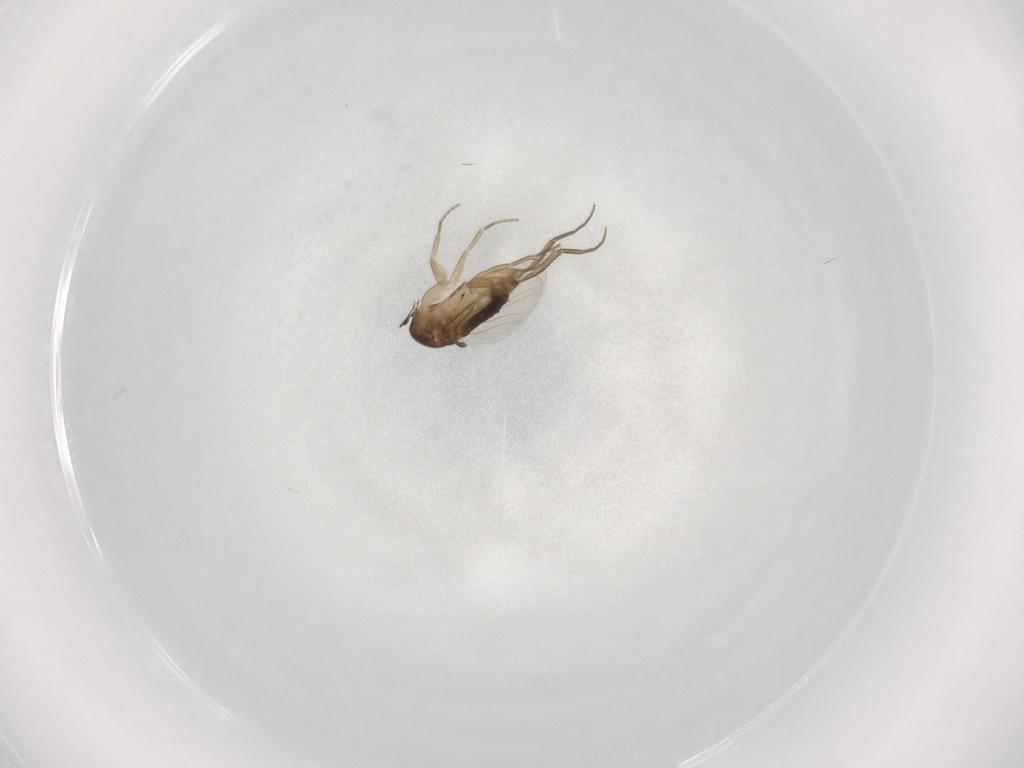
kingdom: Animalia
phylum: Arthropoda
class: Insecta
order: Diptera
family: Phoridae
